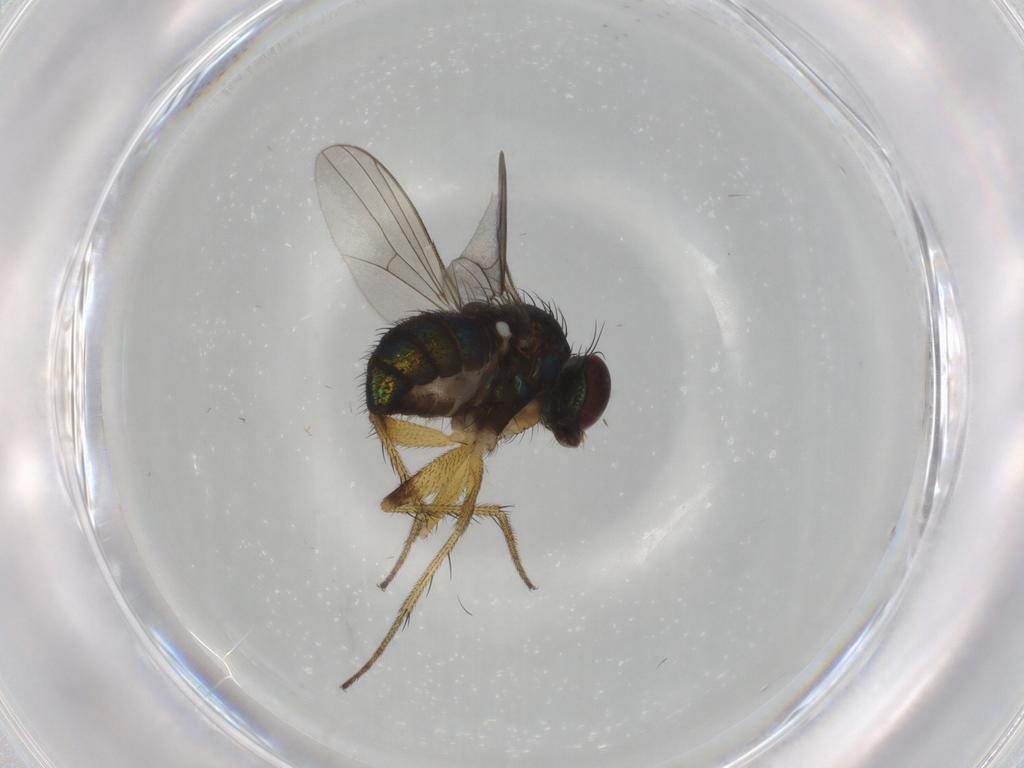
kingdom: Animalia
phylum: Arthropoda
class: Insecta
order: Diptera
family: Dolichopodidae
